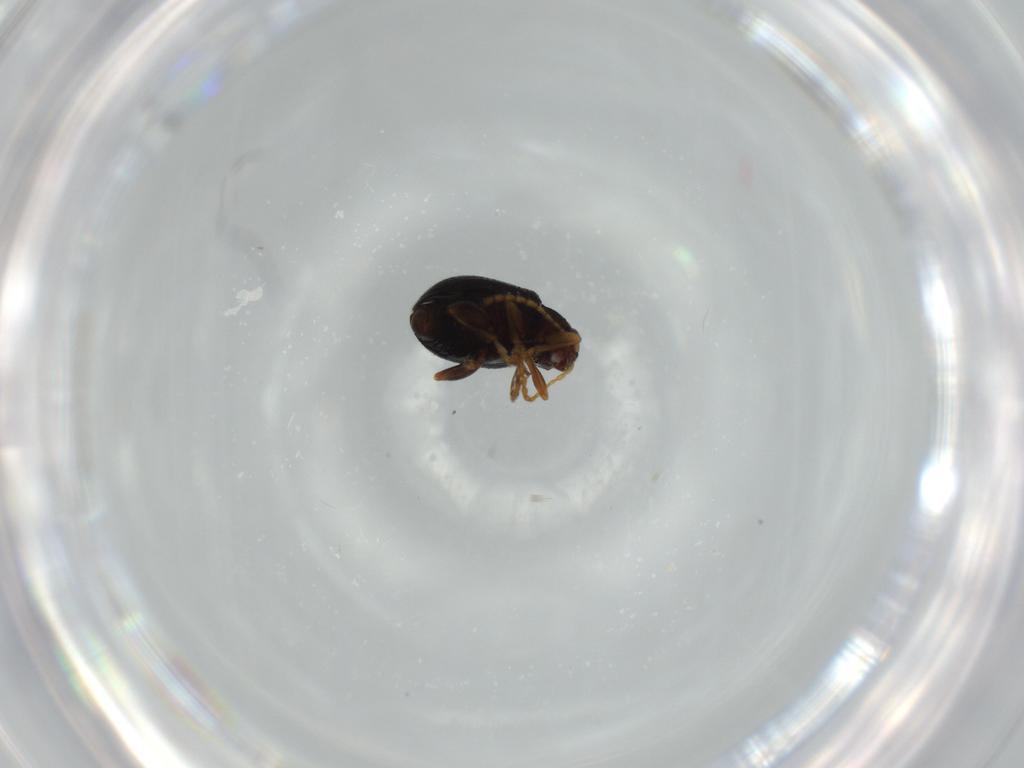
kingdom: Animalia
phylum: Arthropoda
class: Insecta
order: Coleoptera
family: Chrysomelidae
